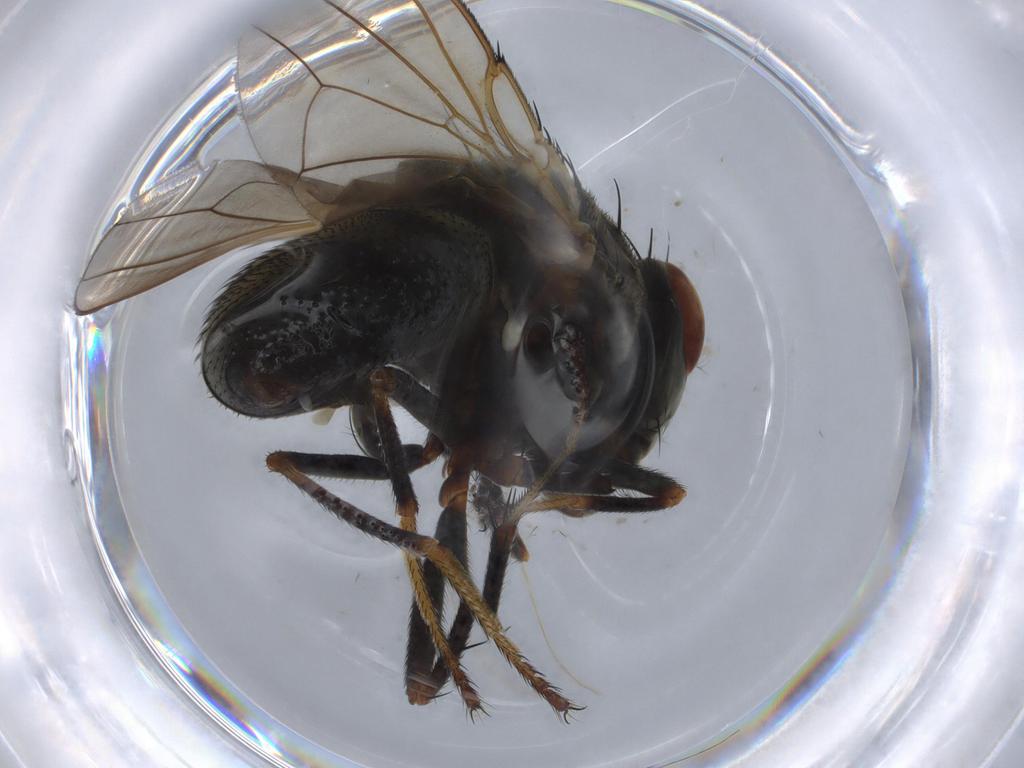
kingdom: Animalia
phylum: Arthropoda
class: Insecta
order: Diptera
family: Ephydridae
